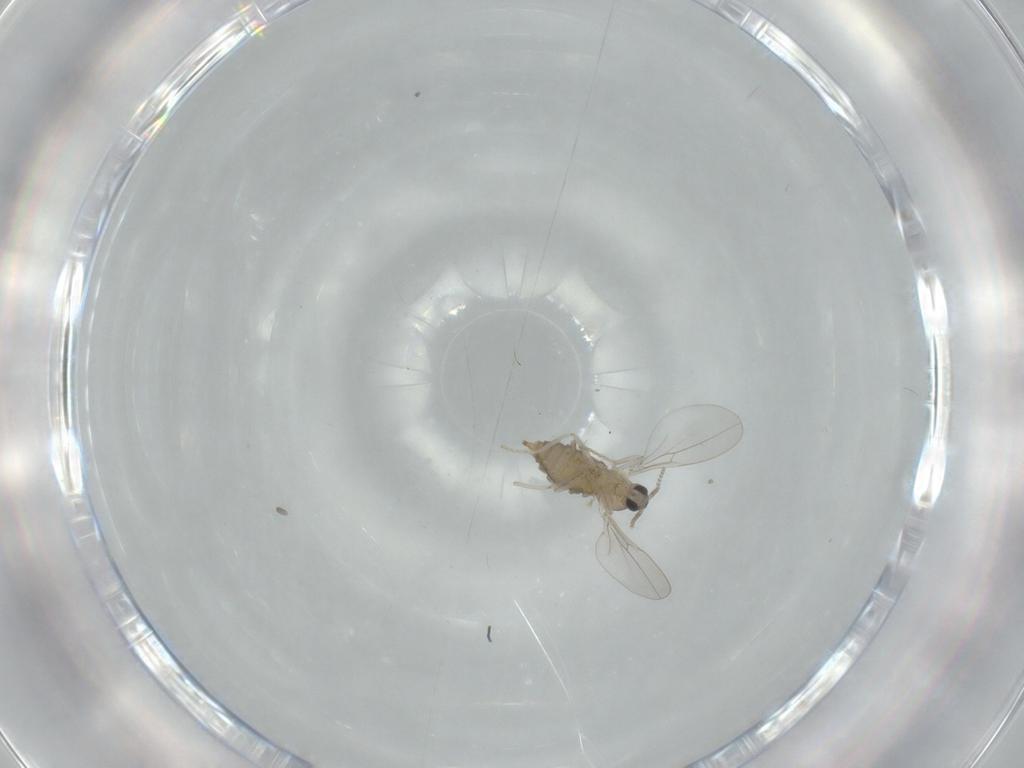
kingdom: Animalia
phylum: Arthropoda
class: Insecta
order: Diptera
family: Cecidomyiidae
